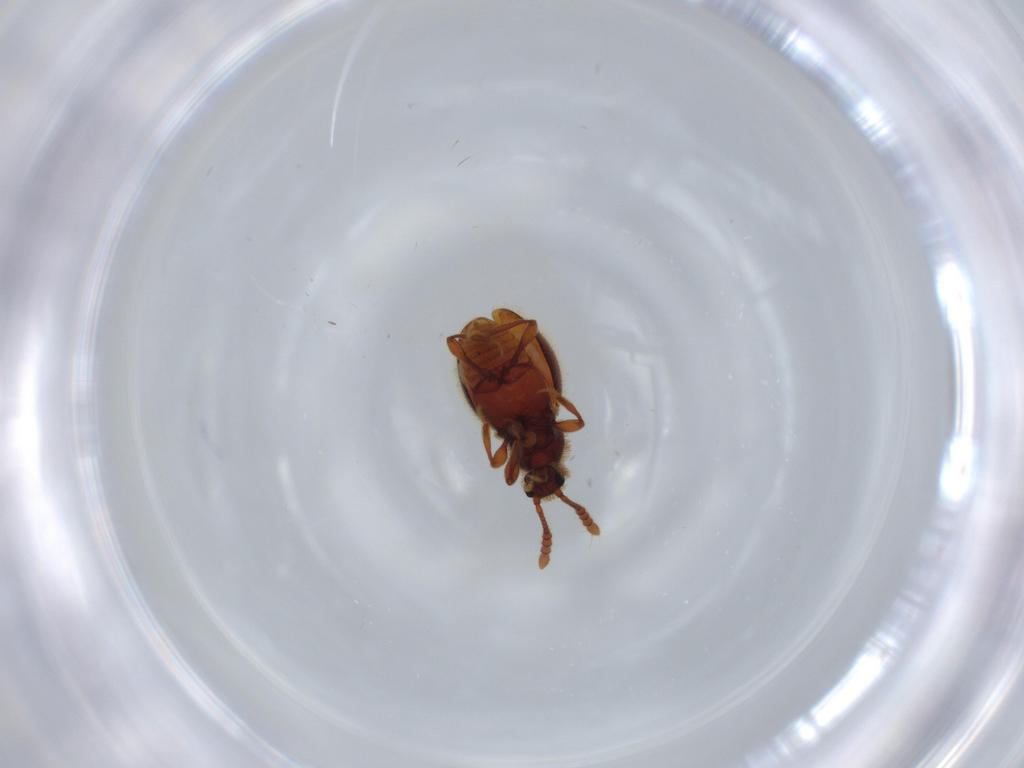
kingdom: Animalia
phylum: Arthropoda
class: Insecta
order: Coleoptera
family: Staphylinidae
